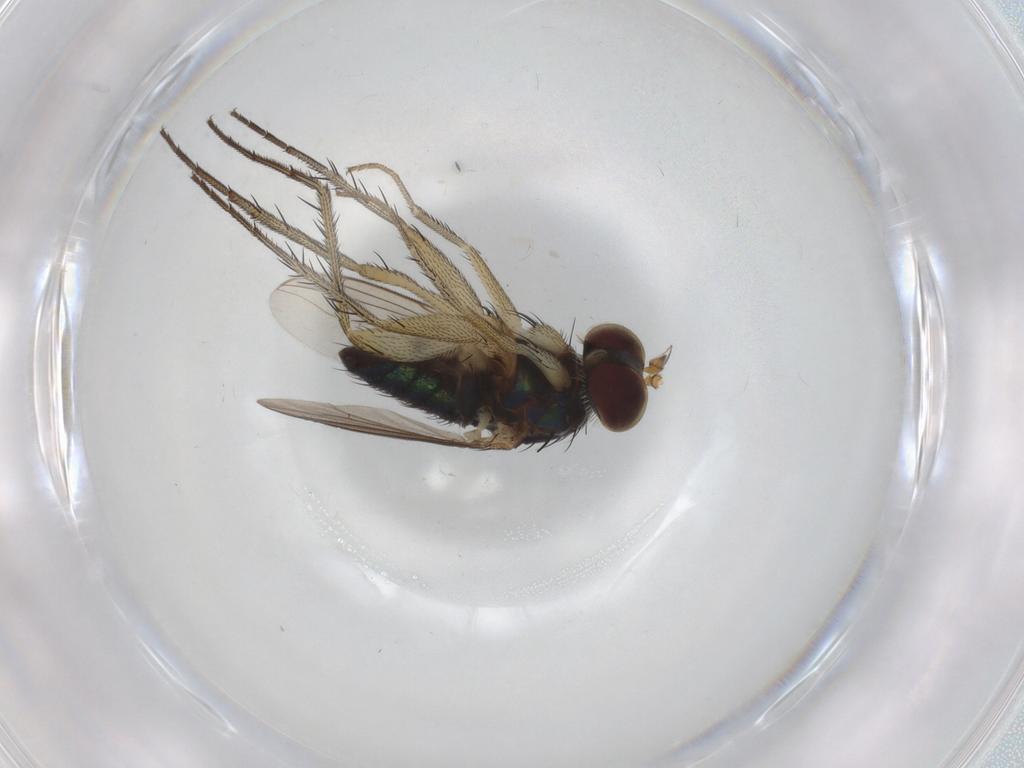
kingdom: Animalia
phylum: Arthropoda
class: Insecta
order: Diptera
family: Dolichopodidae
